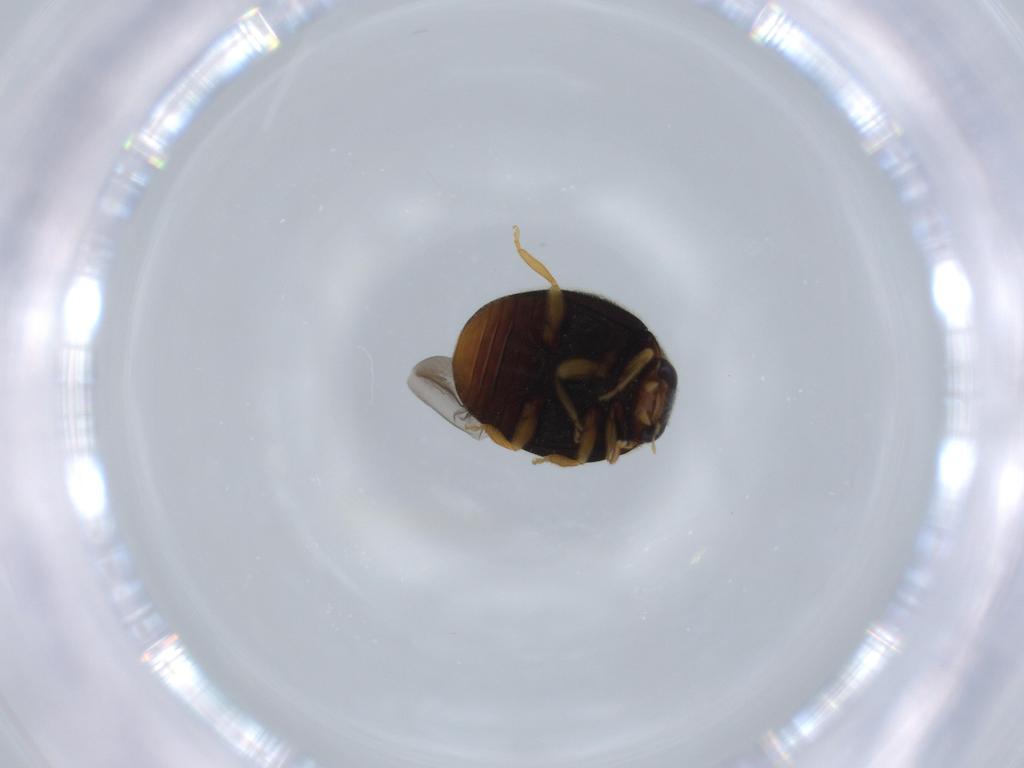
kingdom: Animalia
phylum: Arthropoda
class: Insecta
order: Coleoptera
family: Coccinellidae
